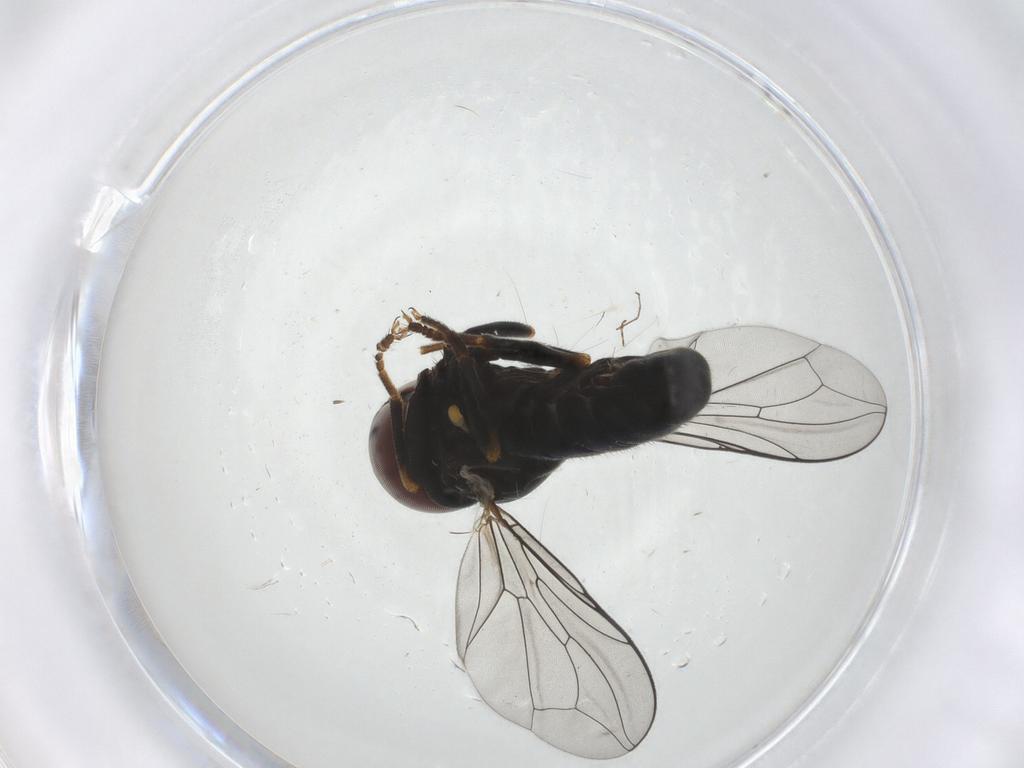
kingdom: Animalia
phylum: Arthropoda
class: Insecta
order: Diptera
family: Pipunculidae
